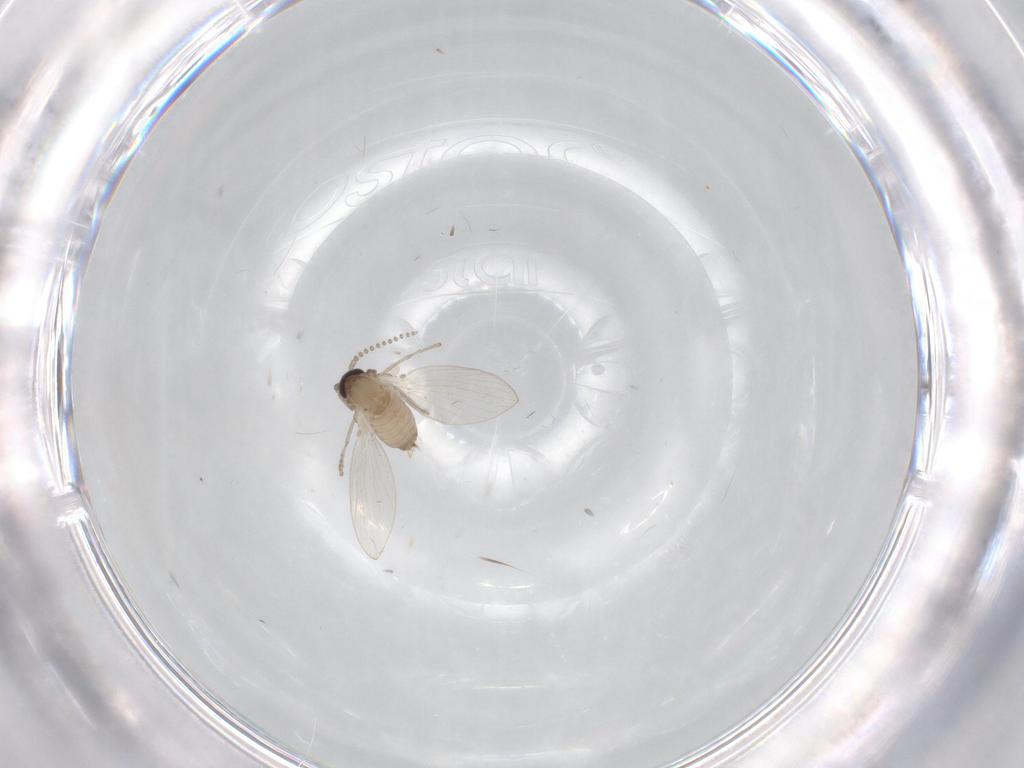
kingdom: Animalia
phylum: Arthropoda
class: Insecta
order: Diptera
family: Psychodidae
